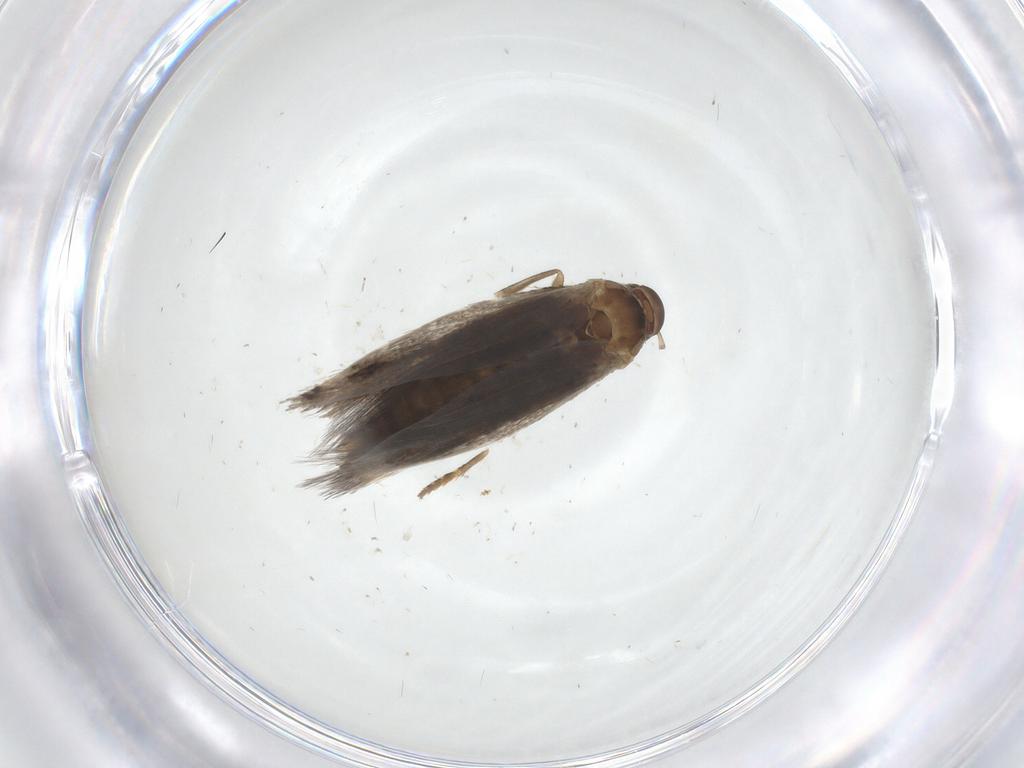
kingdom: Animalia
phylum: Arthropoda
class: Insecta
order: Lepidoptera
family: Elachistidae
